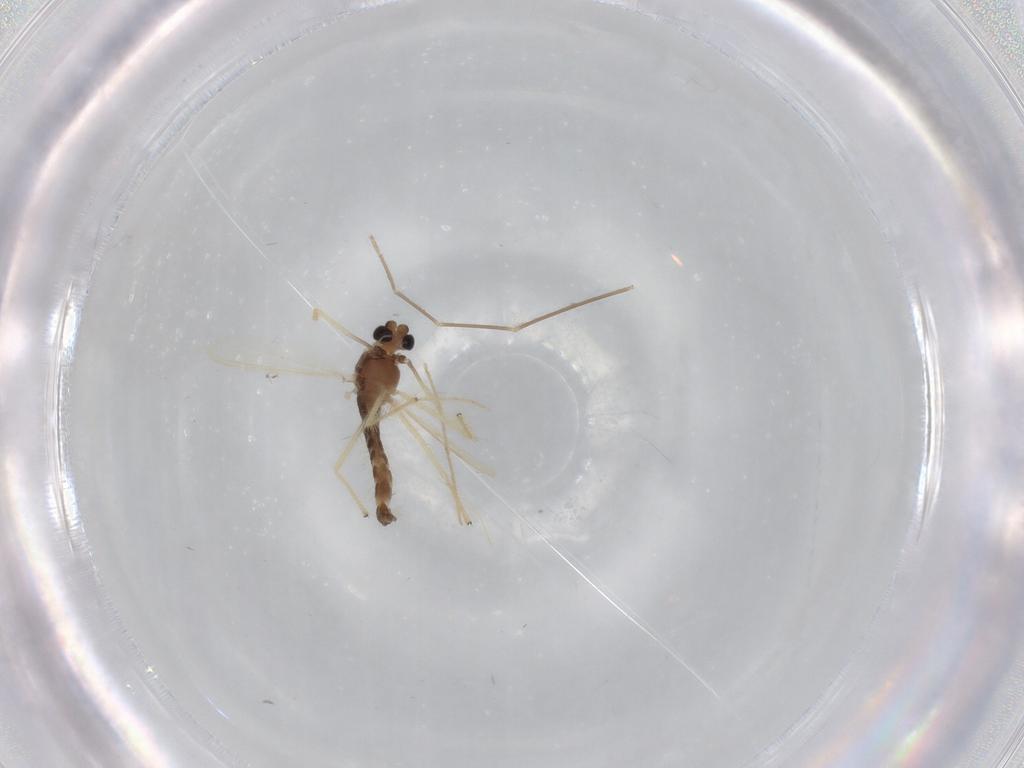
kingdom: Animalia
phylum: Arthropoda
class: Insecta
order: Diptera
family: Chironomidae
